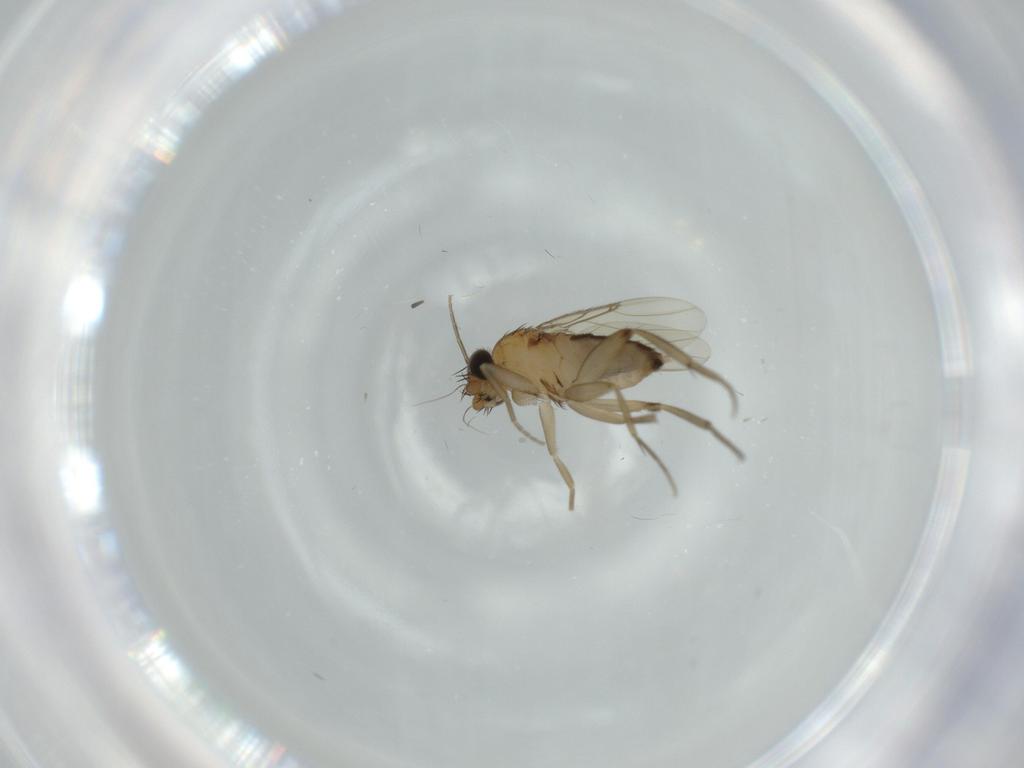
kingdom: Animalia
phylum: Arthropoda
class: Insecta
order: Diptera
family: Phoridae
